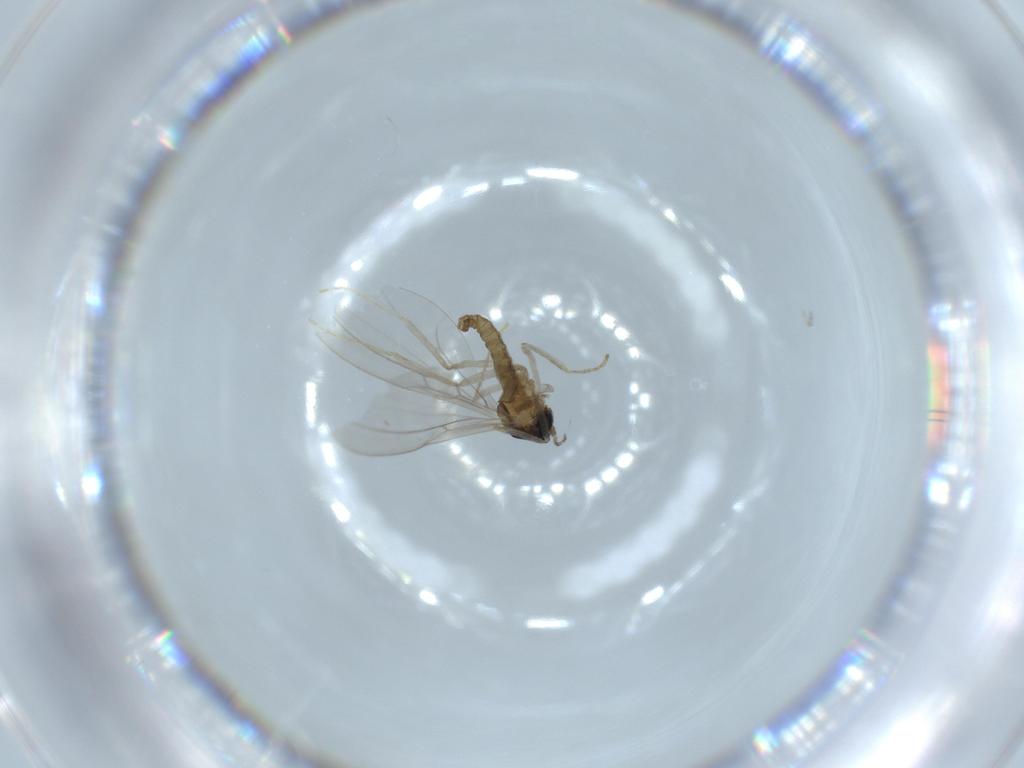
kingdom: Animalia
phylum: Arthropoda
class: Insecta
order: Diptera
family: Cecidomyiidae
